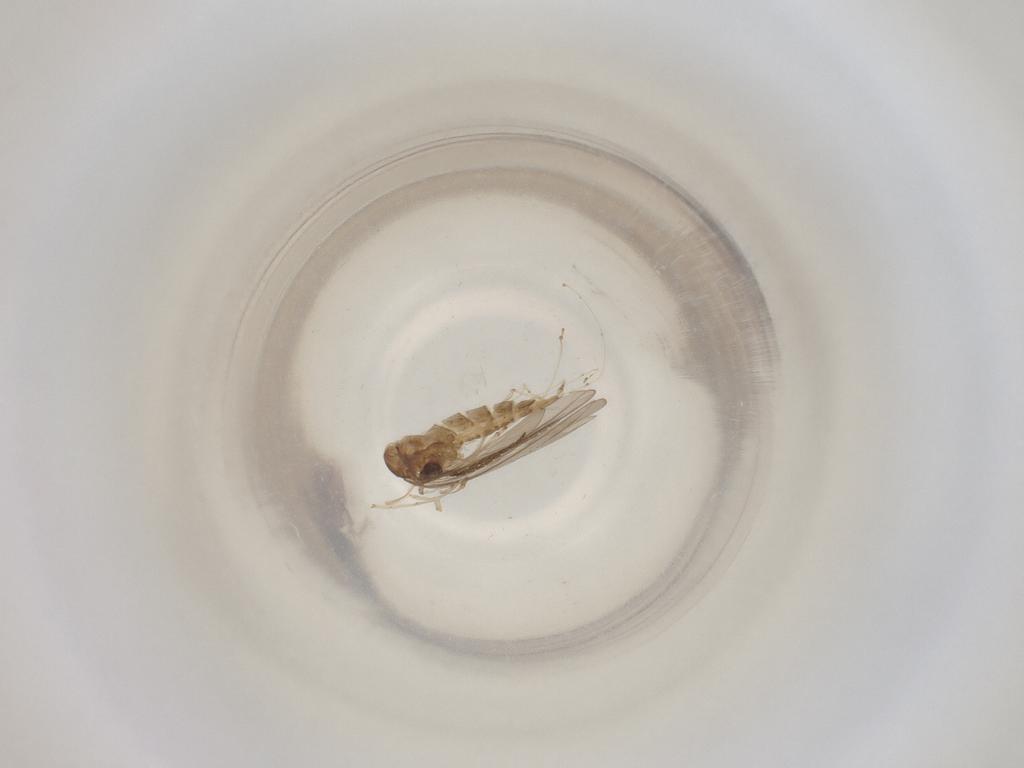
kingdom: Animalia
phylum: Arthropoda
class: Insecta
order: Diptera
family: Cecidomyiidae
